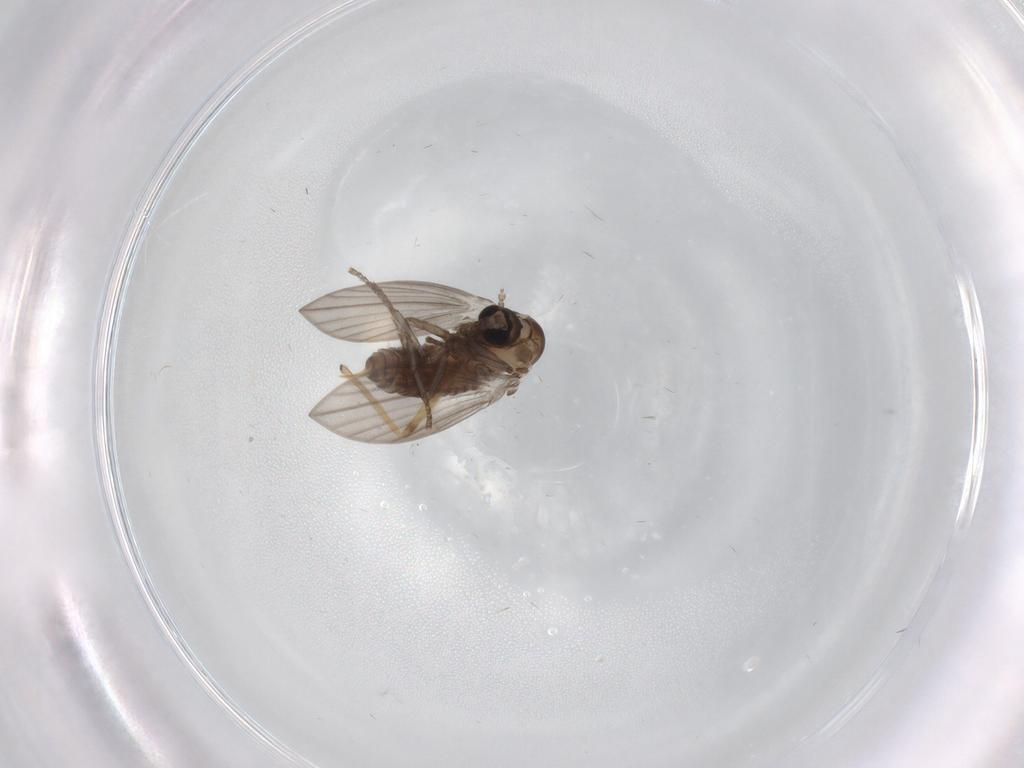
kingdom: Animalia
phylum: Arthropoda
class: Insecta
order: Diptera
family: Psychodidae
